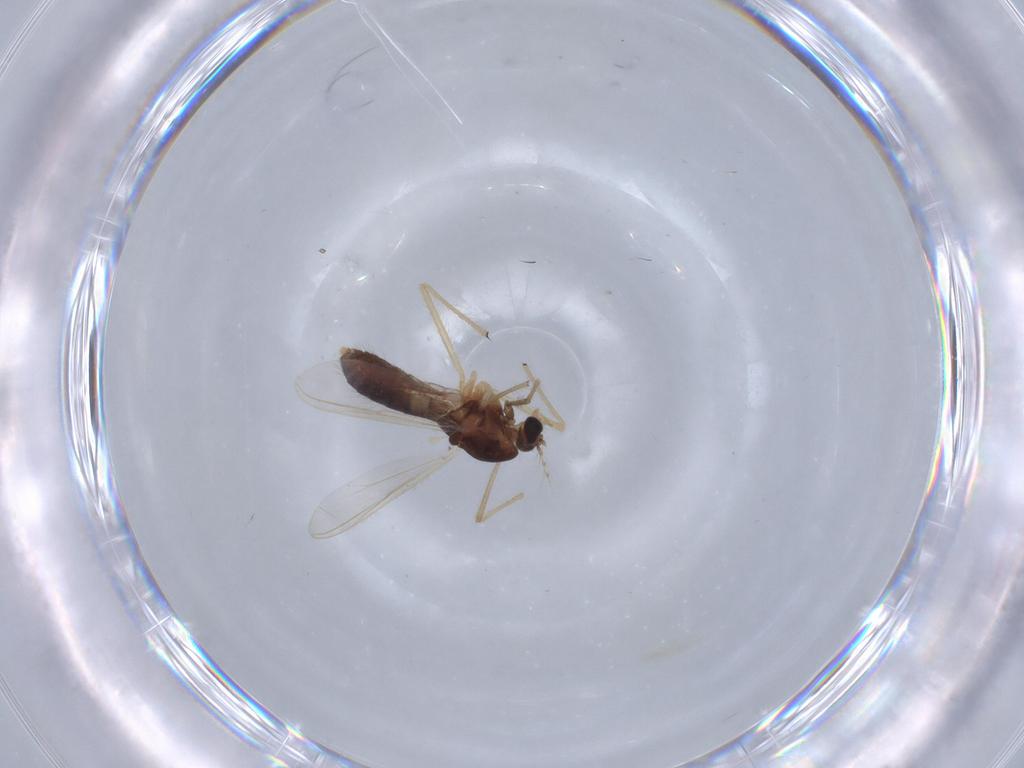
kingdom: Animalia
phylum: Arthropoda
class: Insecta
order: Diptera
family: Chironomidae
